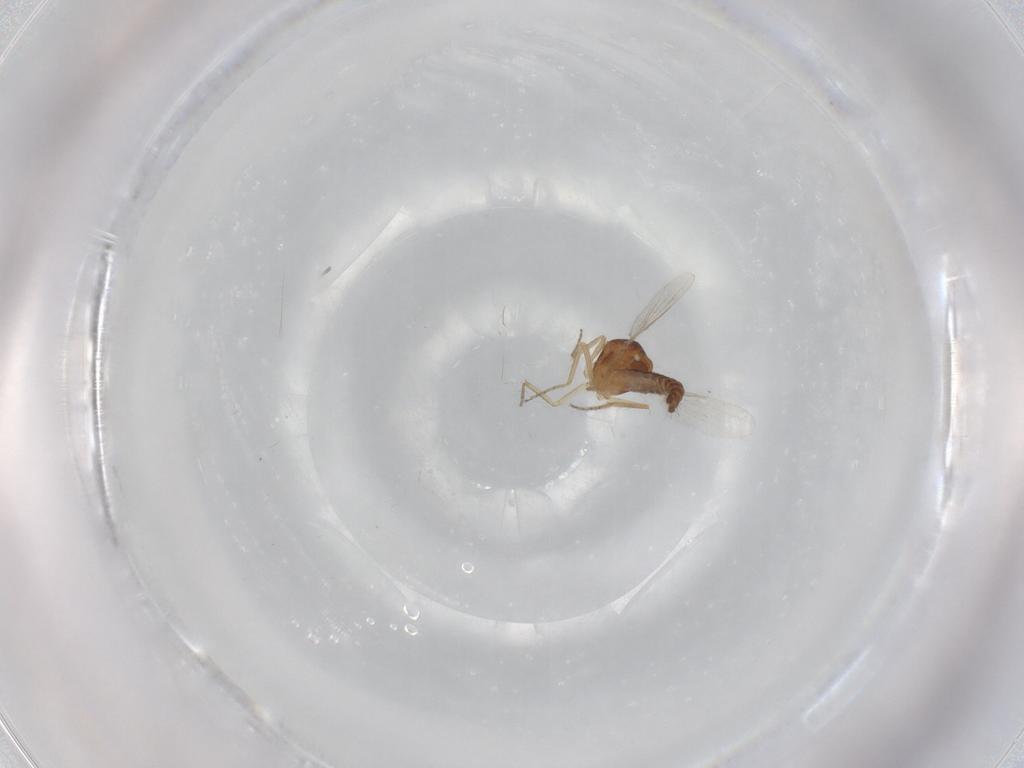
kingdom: Animalia
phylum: Arthropoda
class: Insecta
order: Diptera
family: Ceratopogonidae
